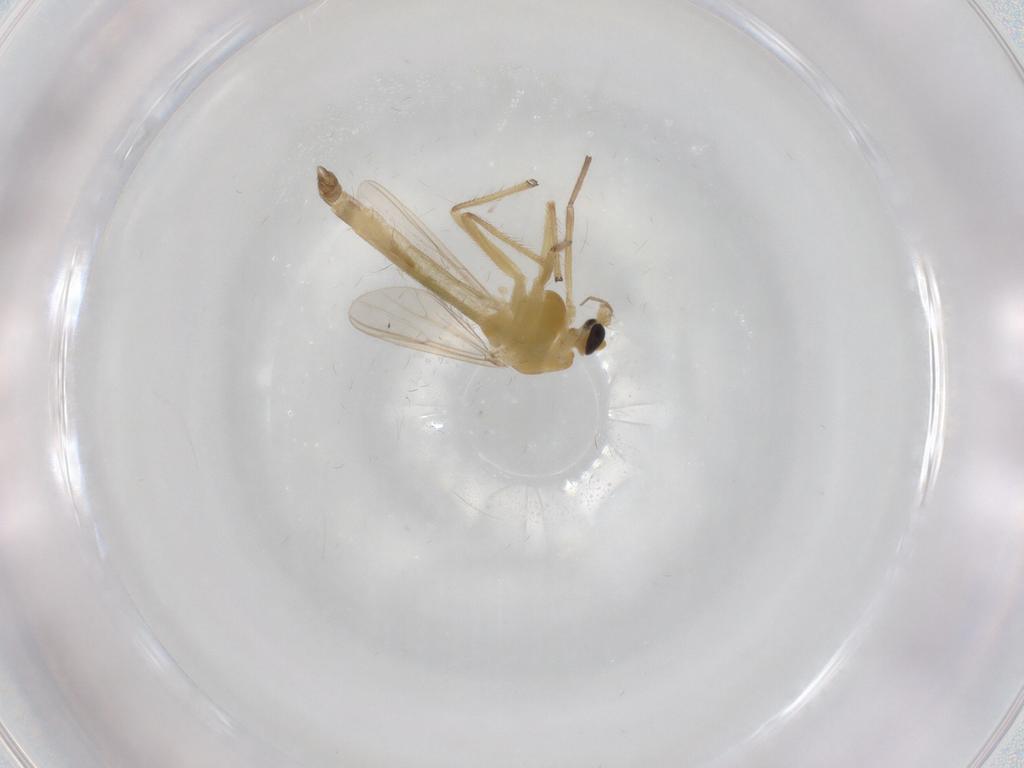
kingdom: Animalia
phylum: Arthropoda
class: Insecta
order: Diptera
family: Chironomidae
